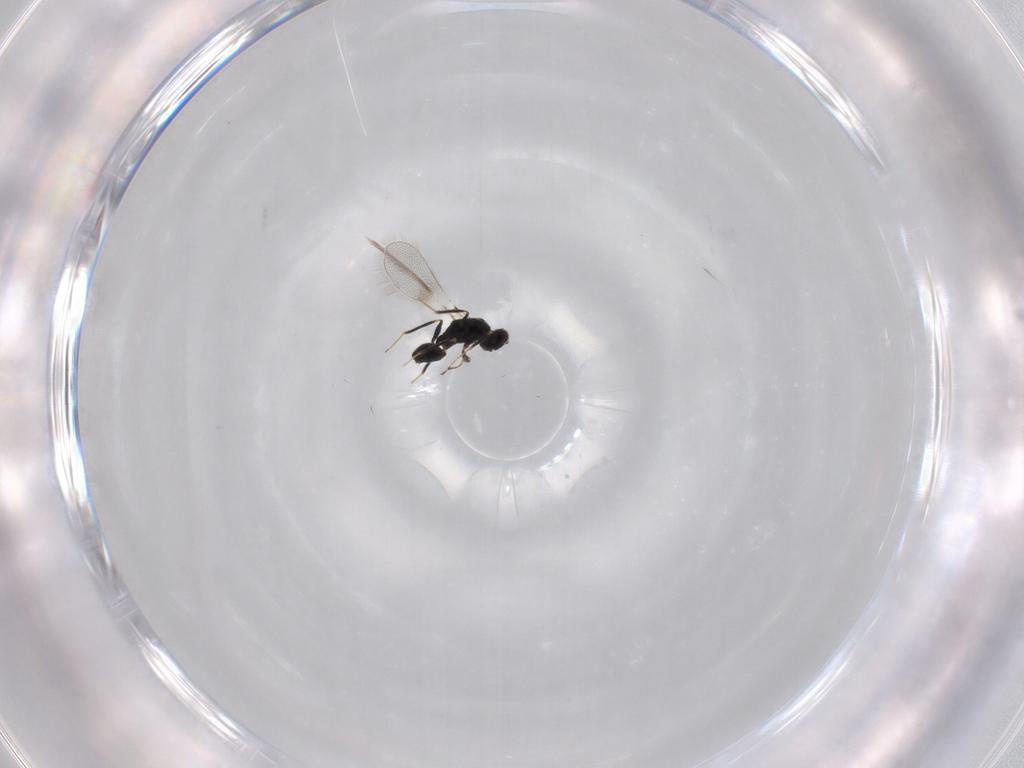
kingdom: Animalia
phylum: Arthropoda
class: Insecta
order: Hymenoptera
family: Mymaridae
